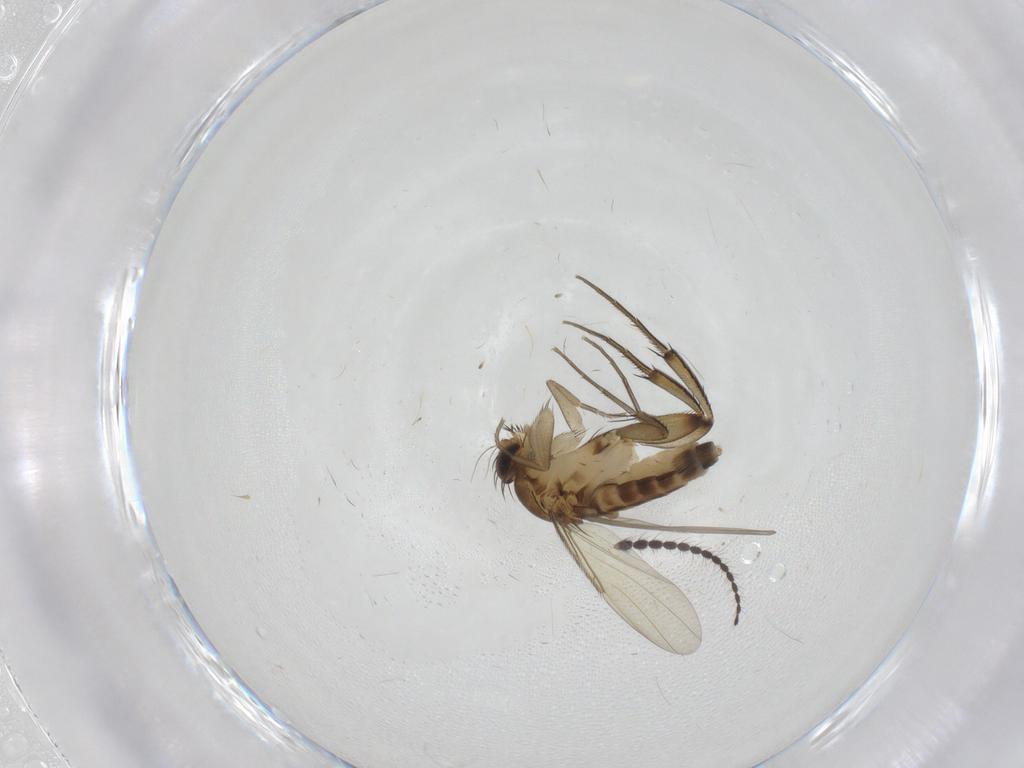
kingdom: Animalia
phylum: Arthropoda
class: Insecta
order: Diptera
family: Phoridae
